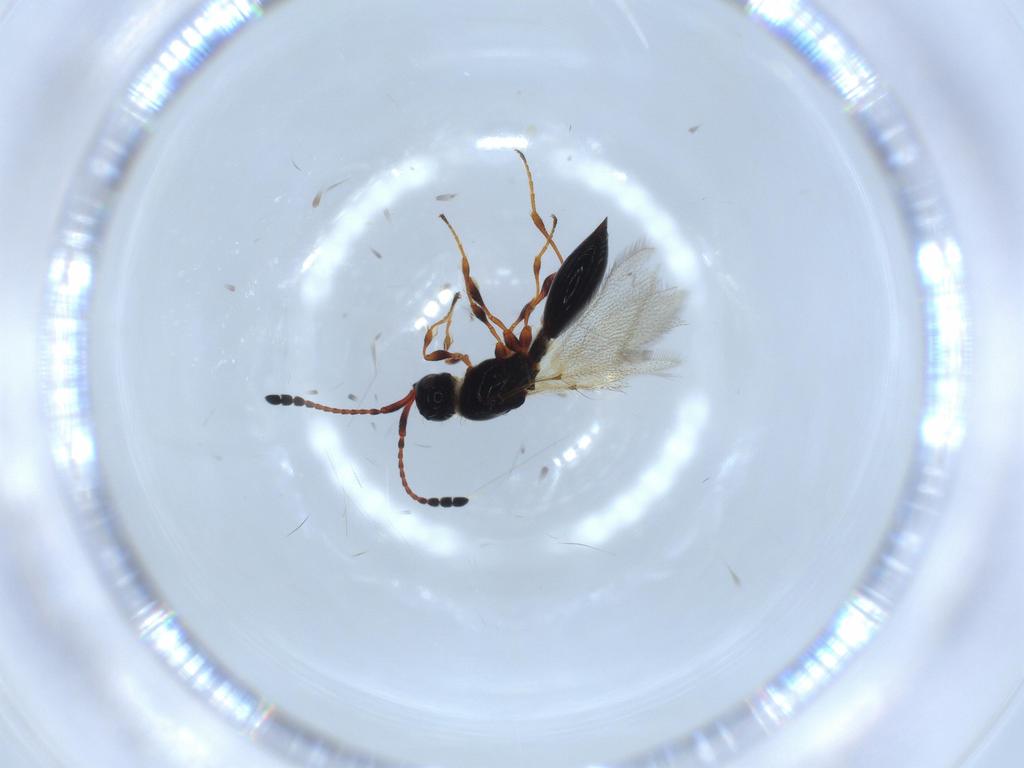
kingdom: Animalia
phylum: Arthropoda
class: Insecta
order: Hymenoptera
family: Diapriidae
